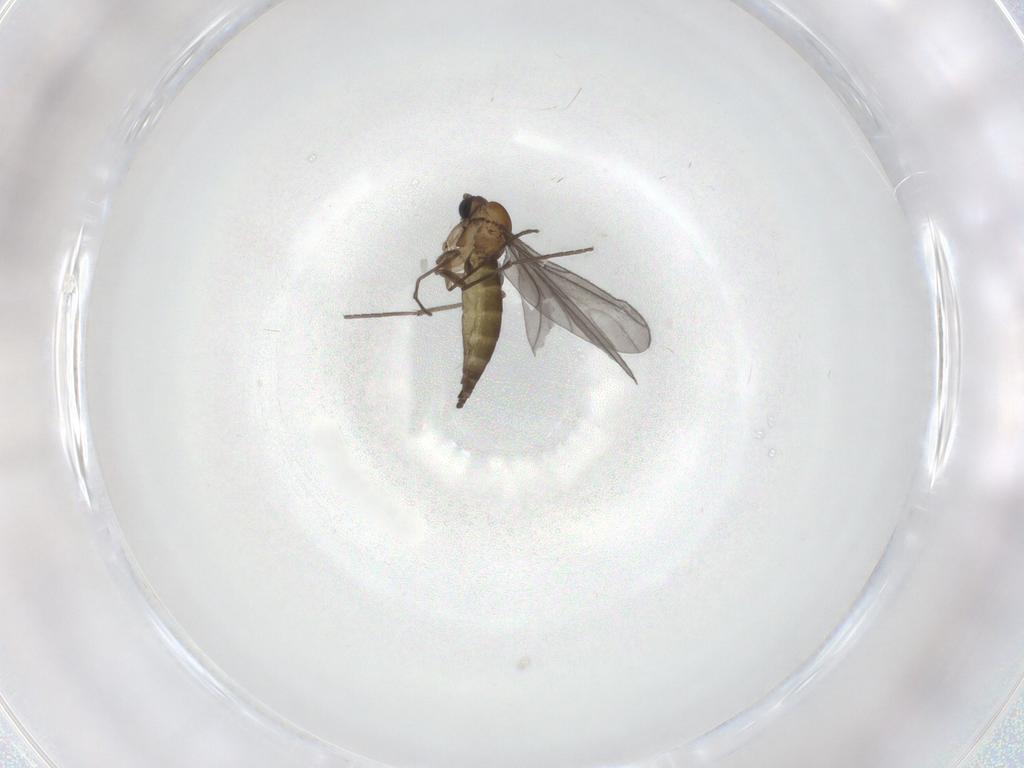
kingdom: Animalia
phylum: Arthropoda
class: Insecta
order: Diptera
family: Sciaridae
